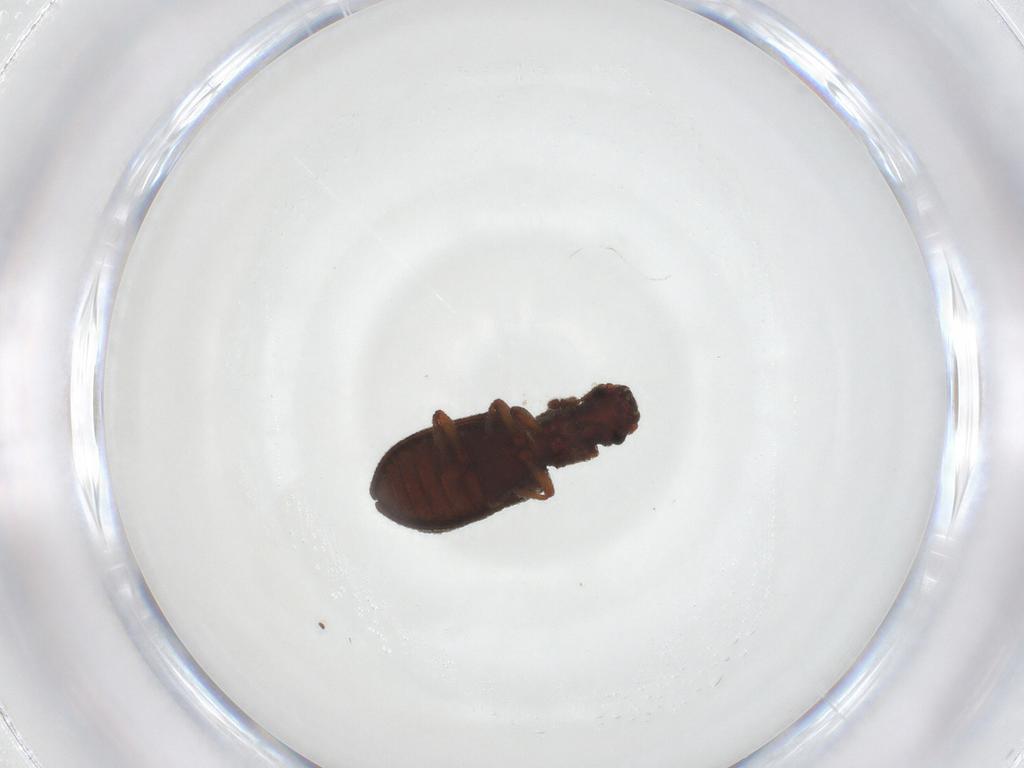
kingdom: Animalia
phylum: Arthropoda
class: Insecta
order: Coleoptera
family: Zopheridae
